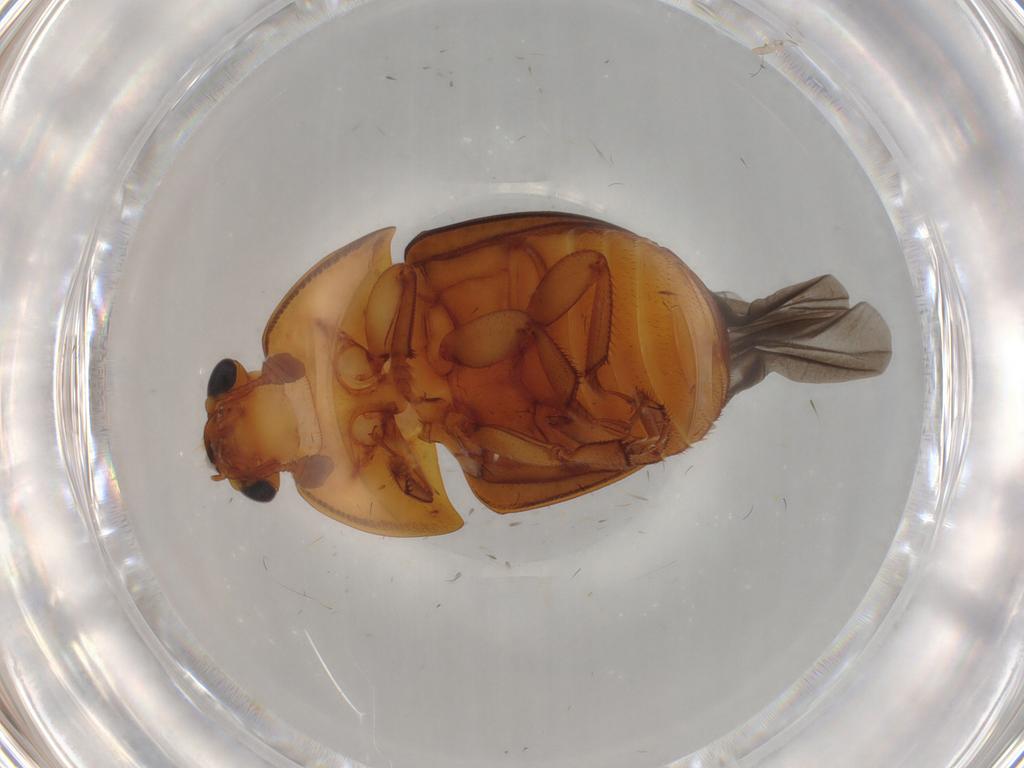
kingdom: Animalia
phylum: Arthropoda
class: Insecta
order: Coleoptera
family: Nitidulidae
